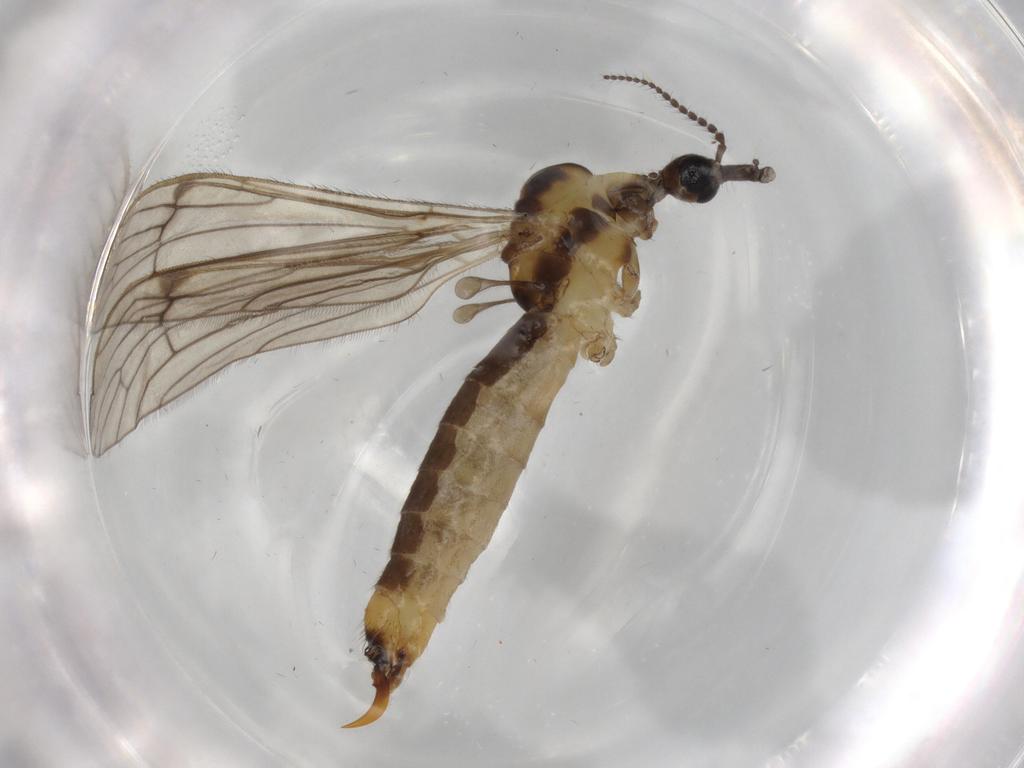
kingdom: Animalia
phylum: Arthropoda
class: Insecta
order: Diptera
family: Limoniidae
